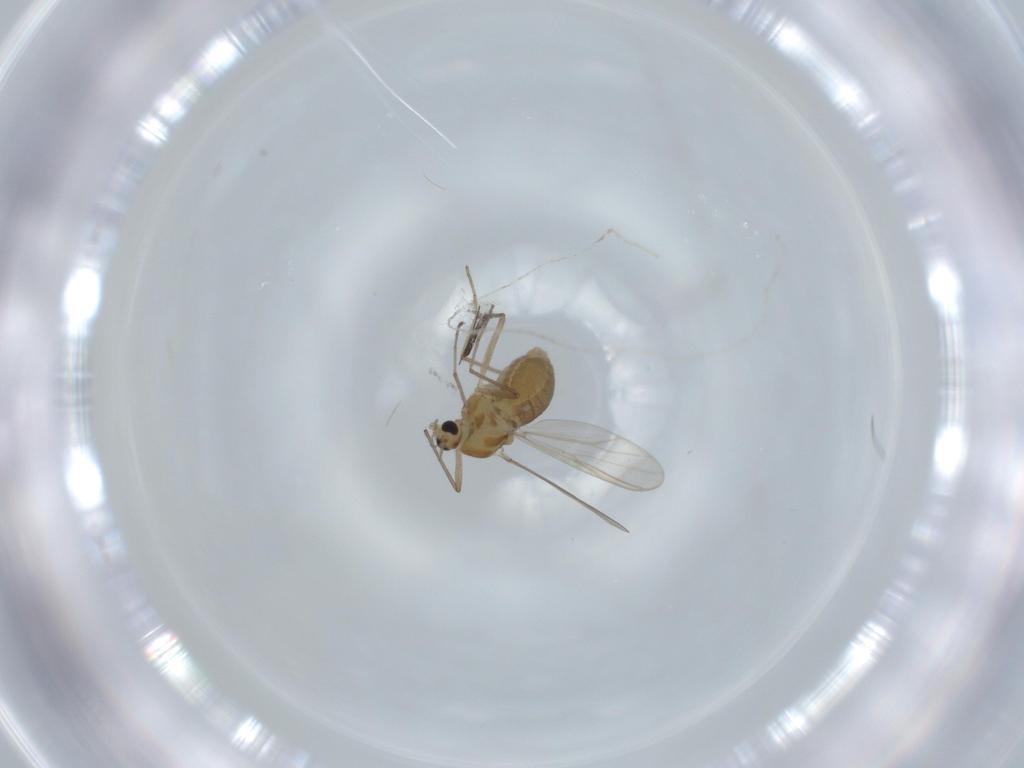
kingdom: Animalia
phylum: Arthropoda
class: Insecta
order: Diptera
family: Chironomidae
